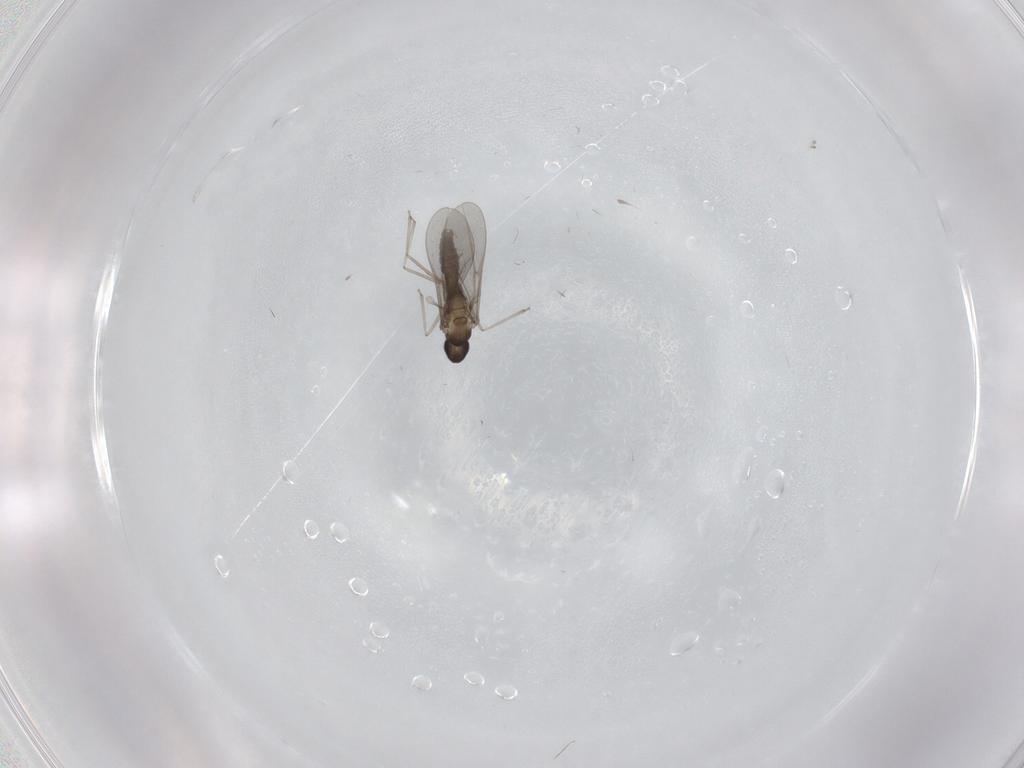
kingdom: Animalia
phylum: Arthropoda
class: Insecta
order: Diptera
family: Cecidomyiidae
